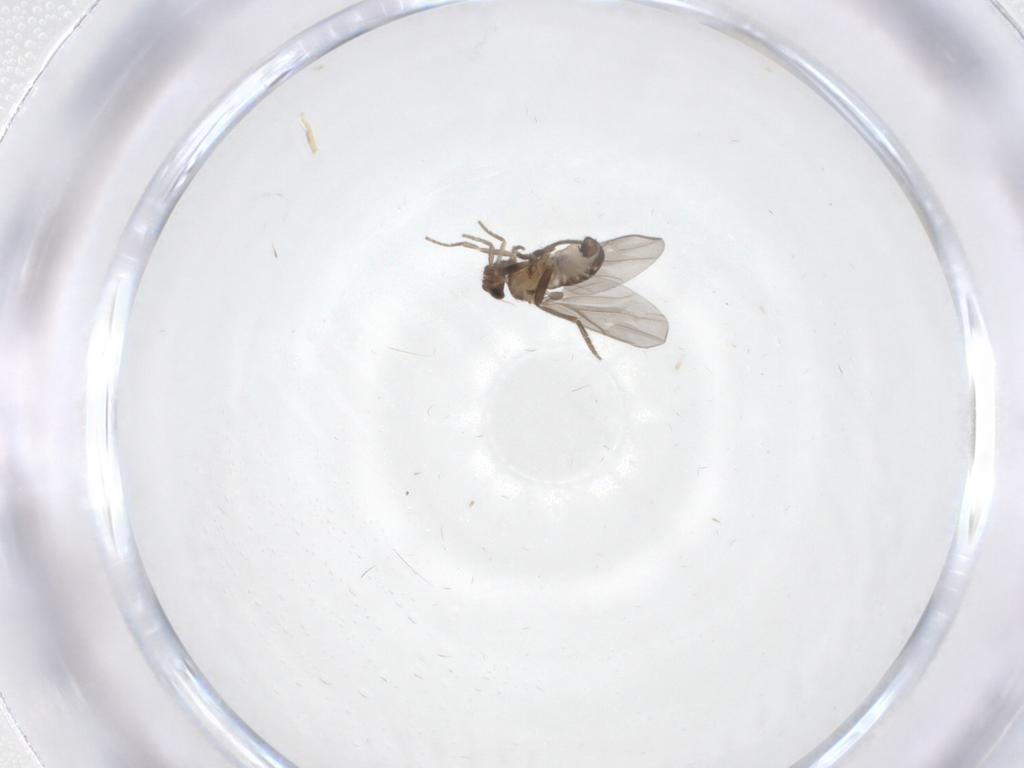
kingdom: Animalia
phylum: Arthropoda
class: Insecta
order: Diptera
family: Phoridae
